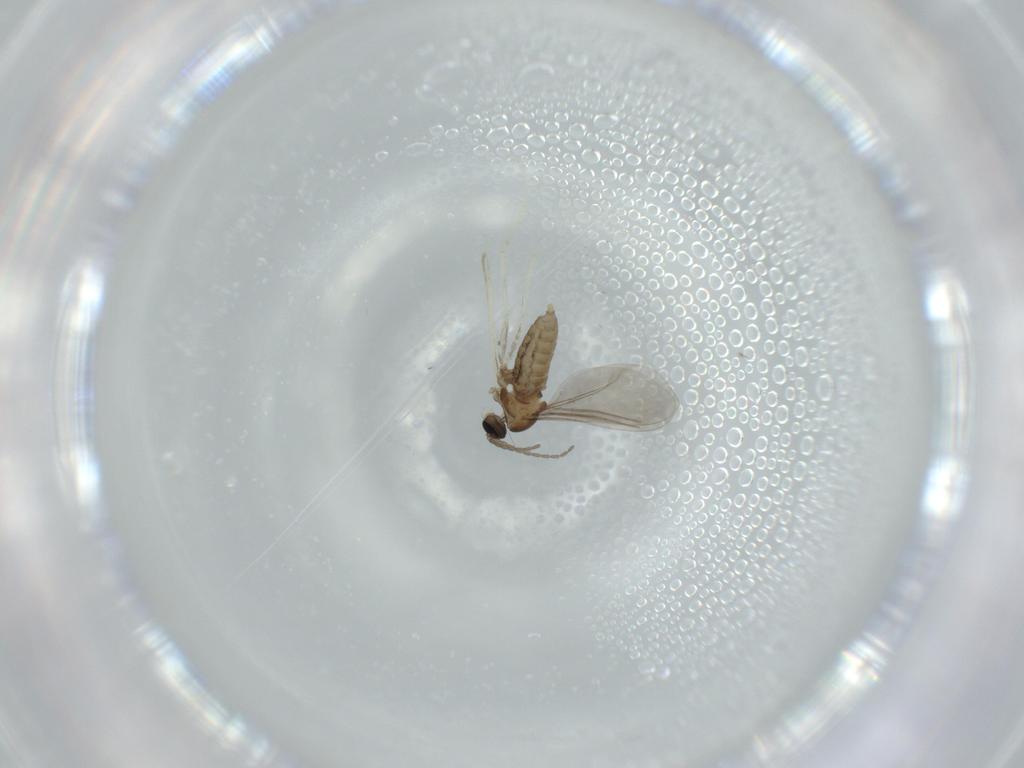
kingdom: Animalia
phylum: Arthropoda
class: Insecta
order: Diptera
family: Cecidomyiidae
